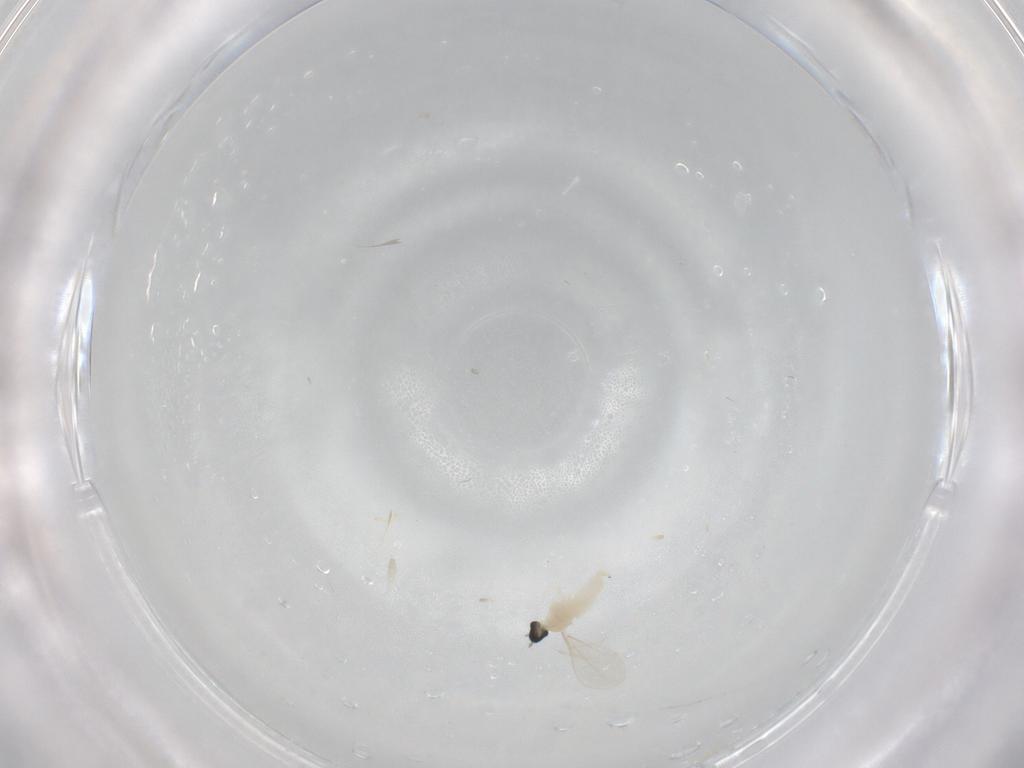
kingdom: Animalia
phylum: Arthropoda
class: Insecta
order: Diptera
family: Cecidomyiidae
